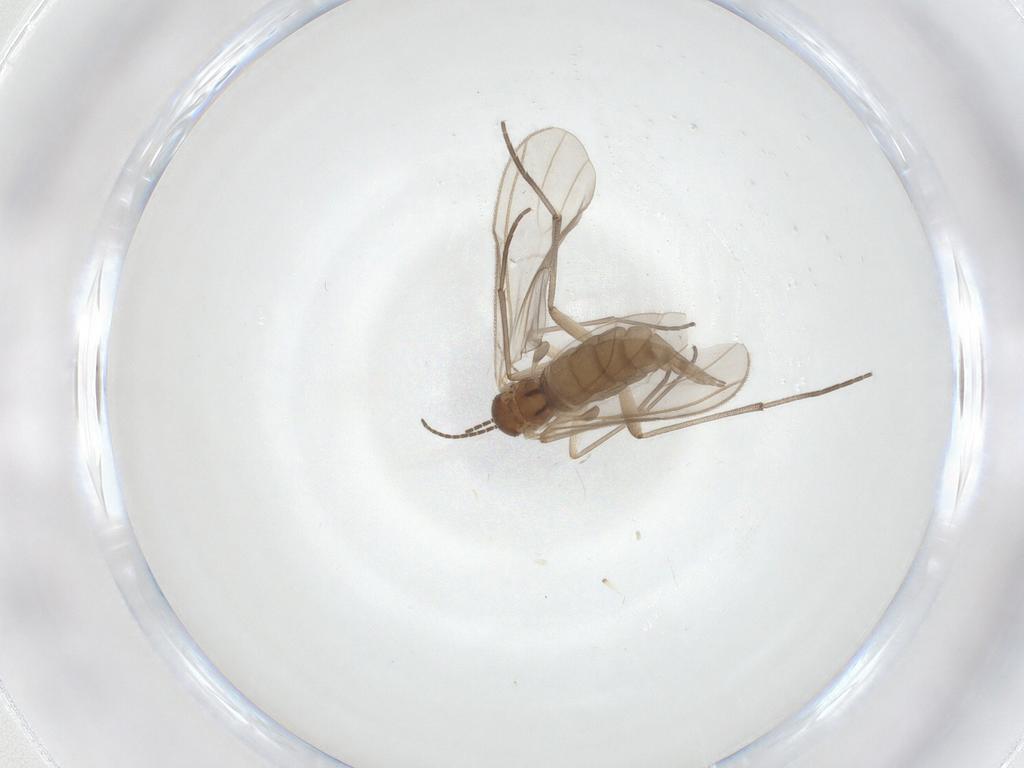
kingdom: Animalia
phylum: Arthropoda
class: Insecta
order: Diptera
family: Sciaridae
